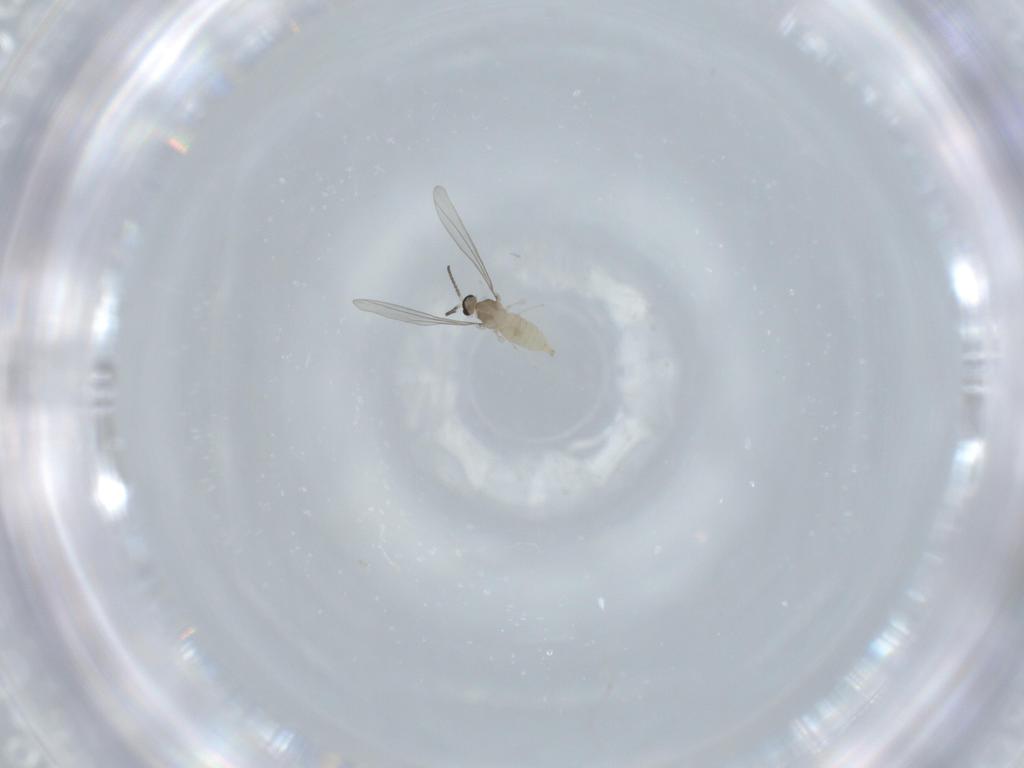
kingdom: Animalia
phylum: Arthropoda
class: Insecta
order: Diptera
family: Cecidomyiidae
